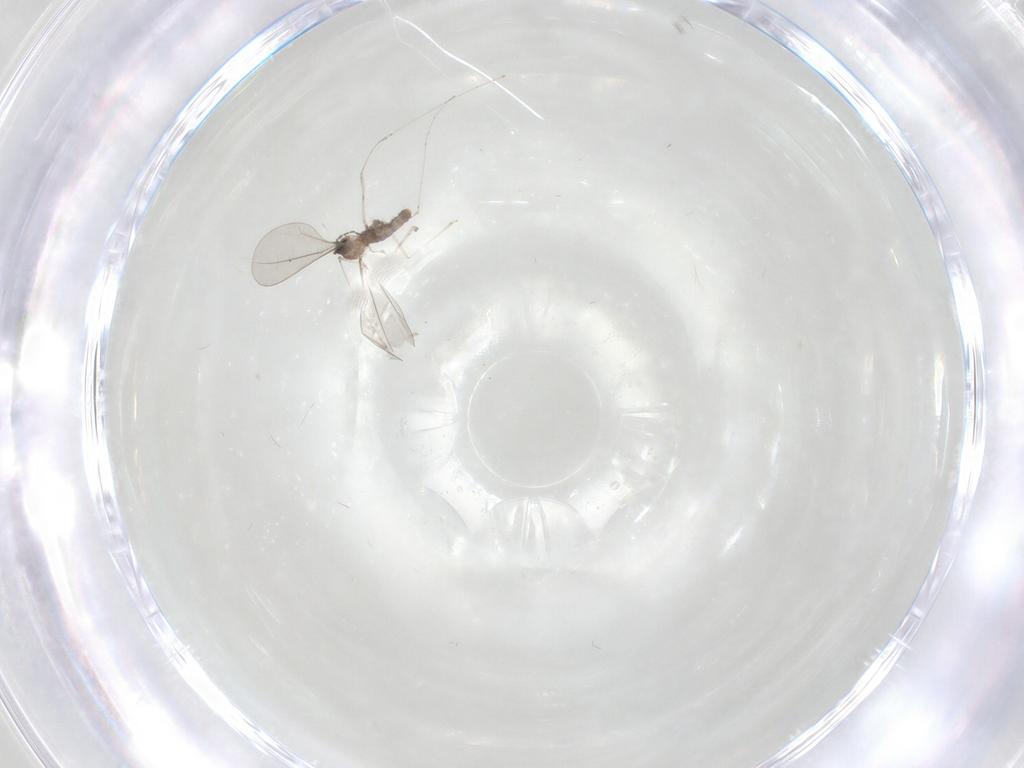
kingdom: Animalia
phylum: Arthropoda
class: Insecta
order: Diptera
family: Cecidomyiidae
